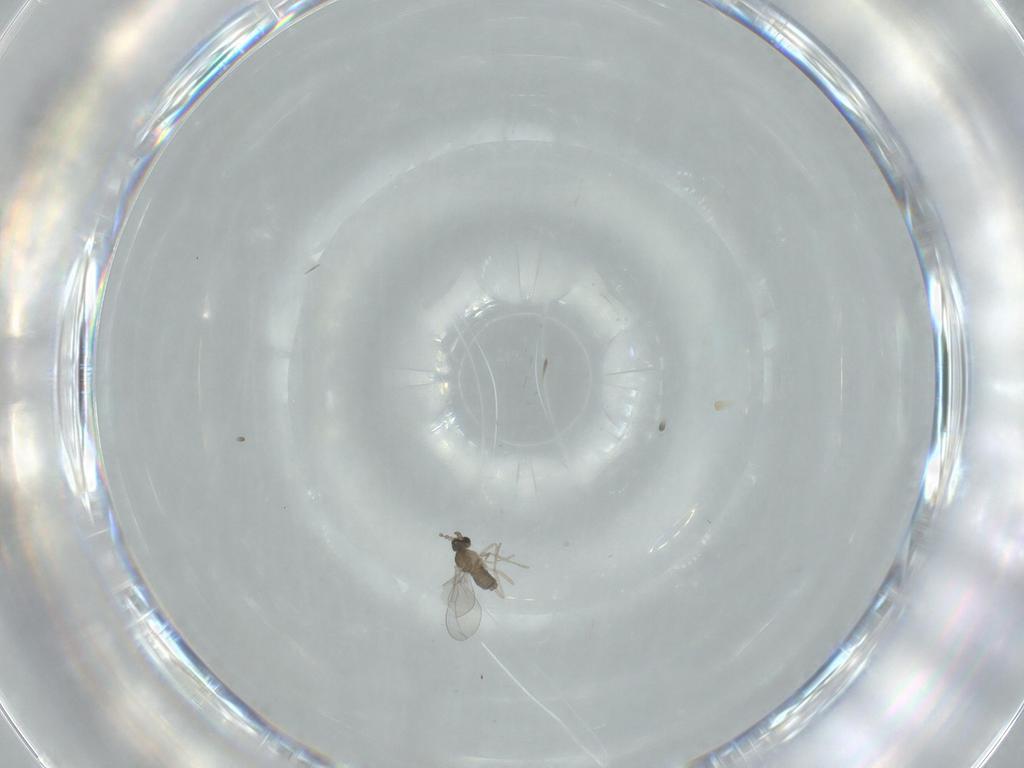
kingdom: Animalia
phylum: Arthropoda
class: Insecta
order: Diptera
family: Cecidomyiidae
